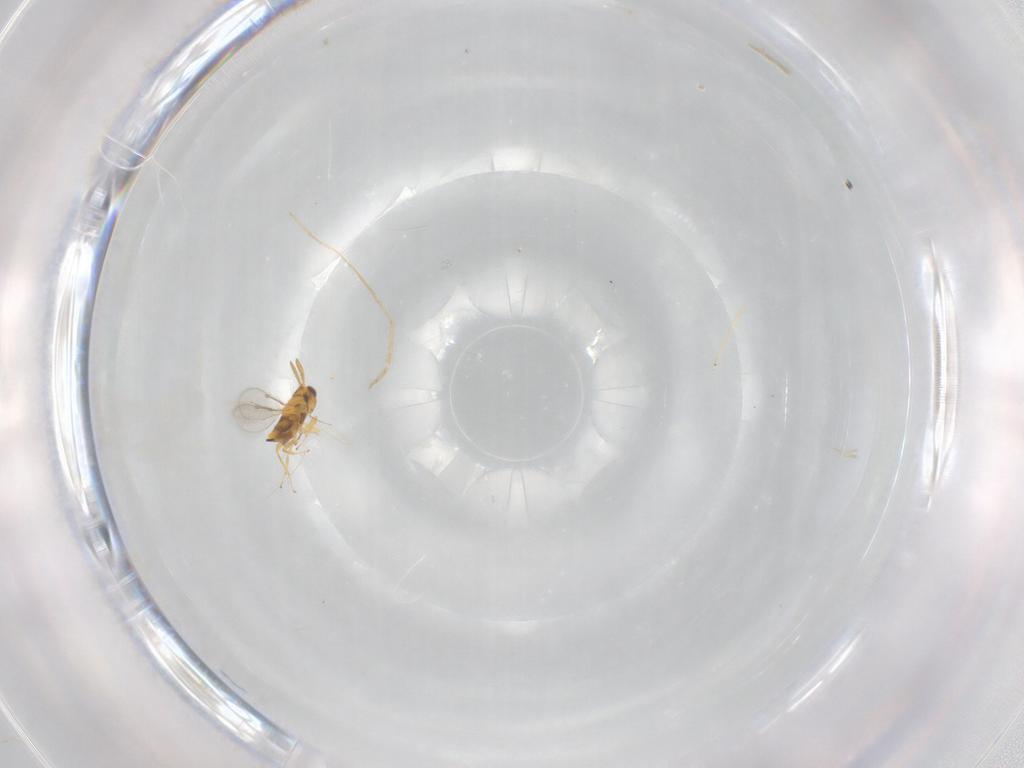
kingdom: Animalia
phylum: Arthropoda
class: Insecta
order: Hymenoptera
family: Aphelinidae
